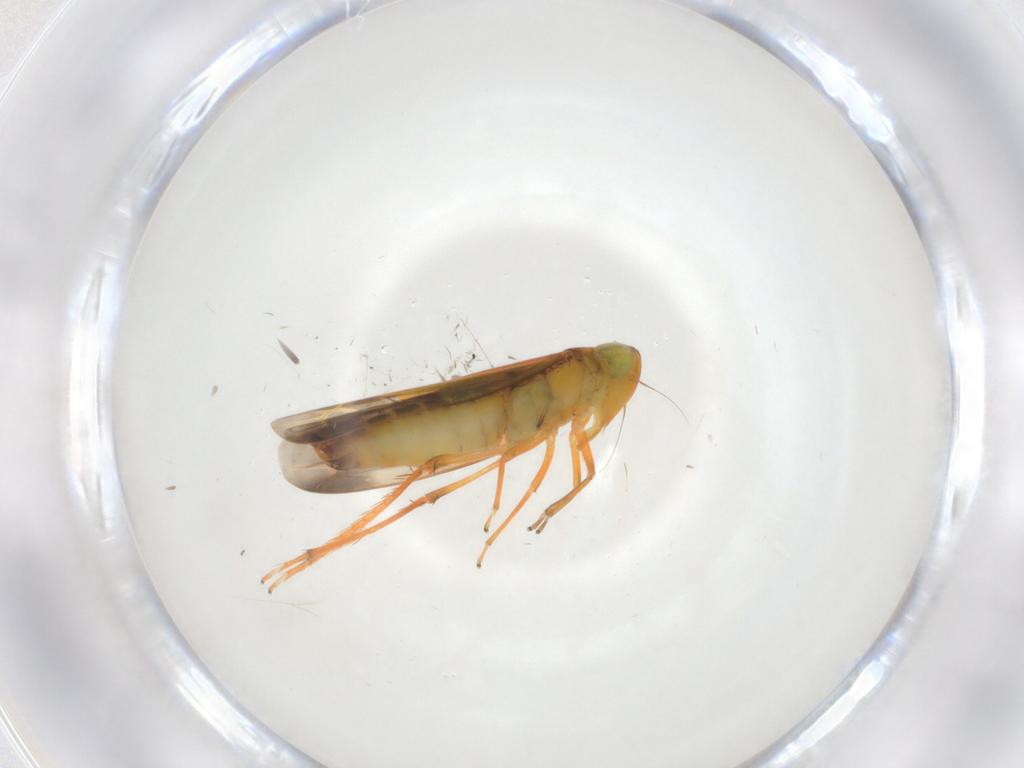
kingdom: Animalia
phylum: Arthropoda
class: Insecta
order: Hemiptera
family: Cicadellidae
